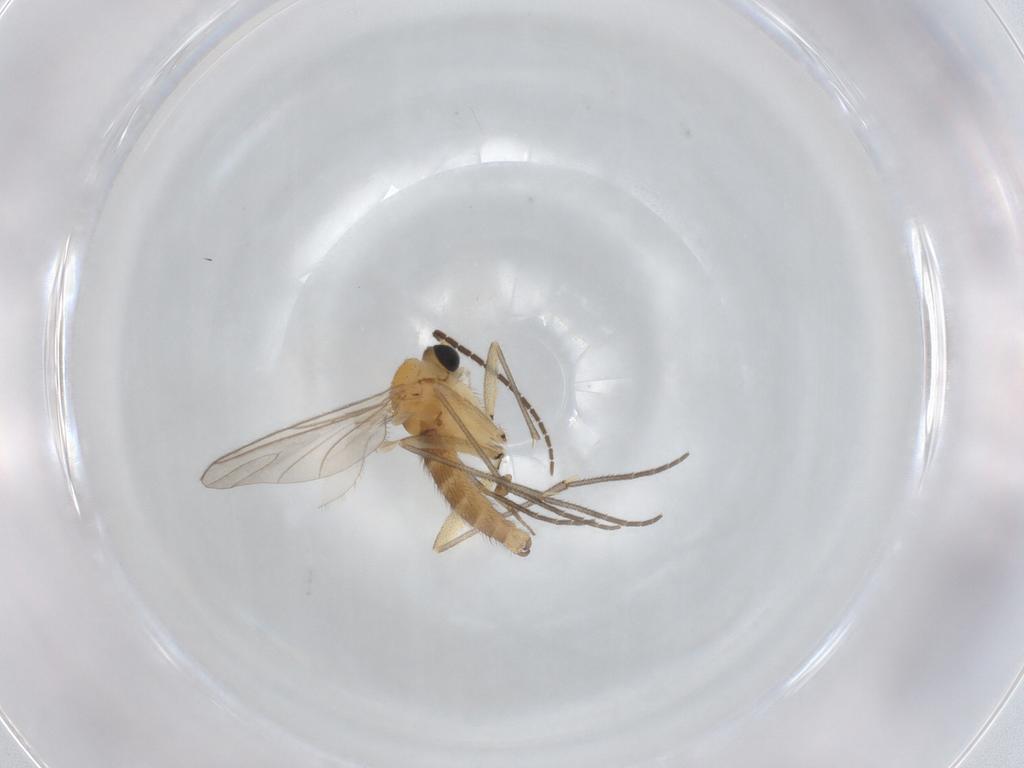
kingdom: Animalia
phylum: Arthropoda
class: Insecta
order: Diptera
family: Sciaridae
